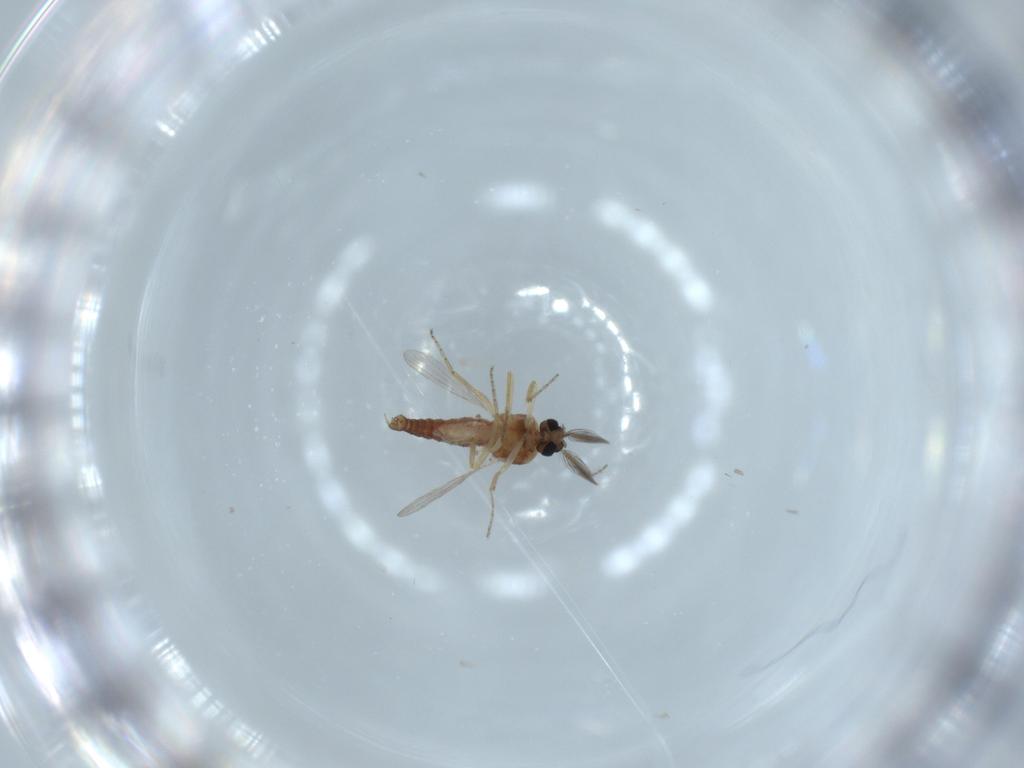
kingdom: Animalia
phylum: Arthropoda
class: Insecta
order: Diptera
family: Ceratopogonidae
